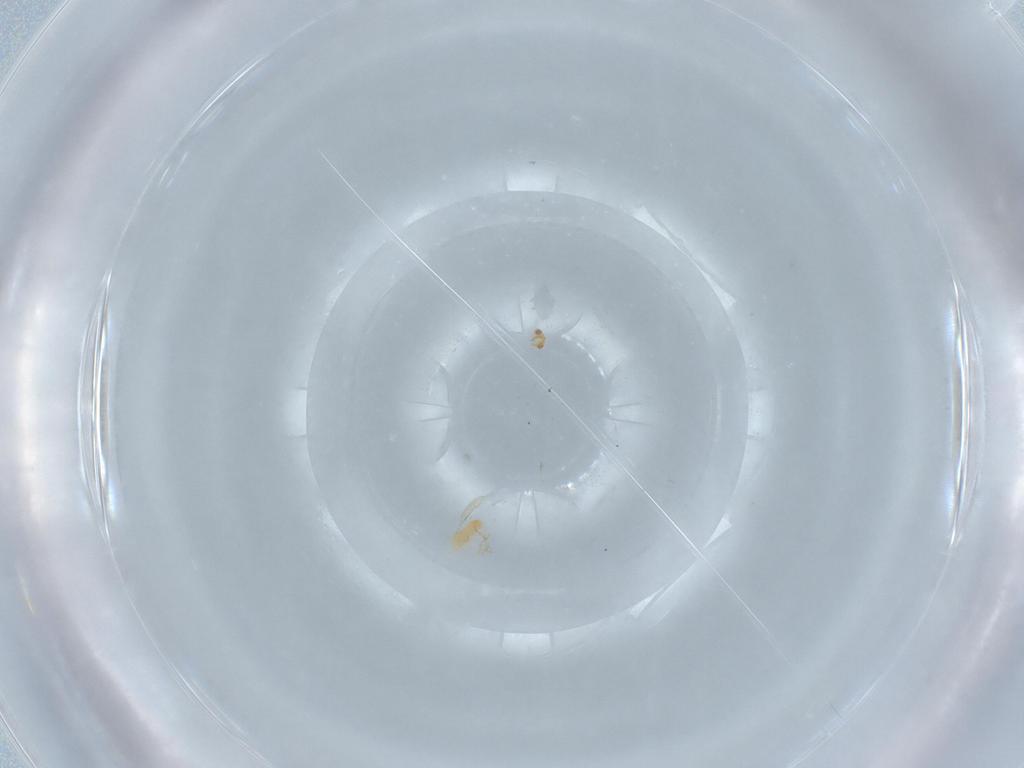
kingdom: Animalia
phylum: Arthropoda
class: Insecta
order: Hymenoptera
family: Aphelinidae
